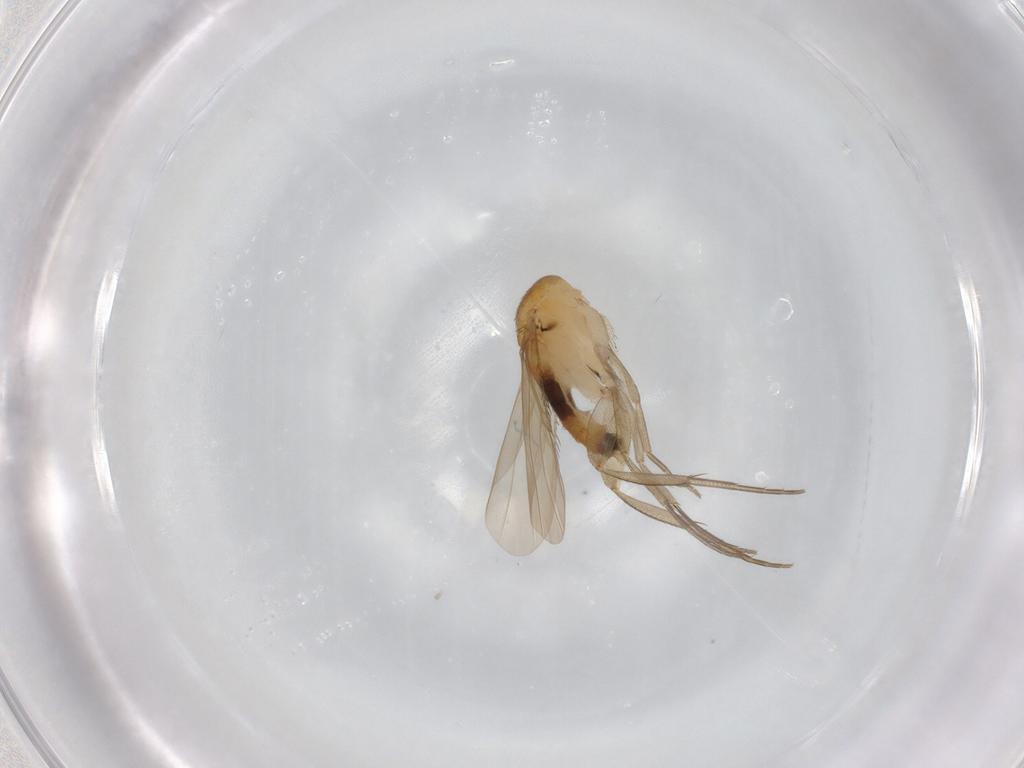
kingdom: Animalia
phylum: Arthropoda
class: Insecta
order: Diptera
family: Phoridae
